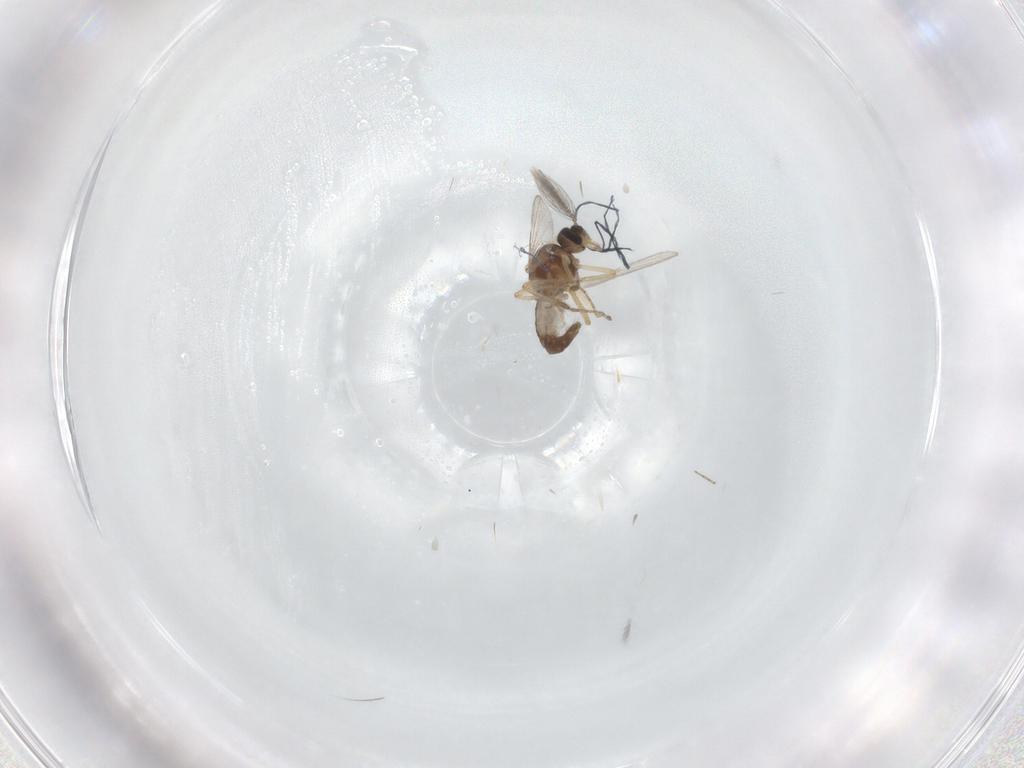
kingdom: Animalia
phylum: Arthropoda
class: Insecta
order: Diptera
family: Ceratopogonidae
